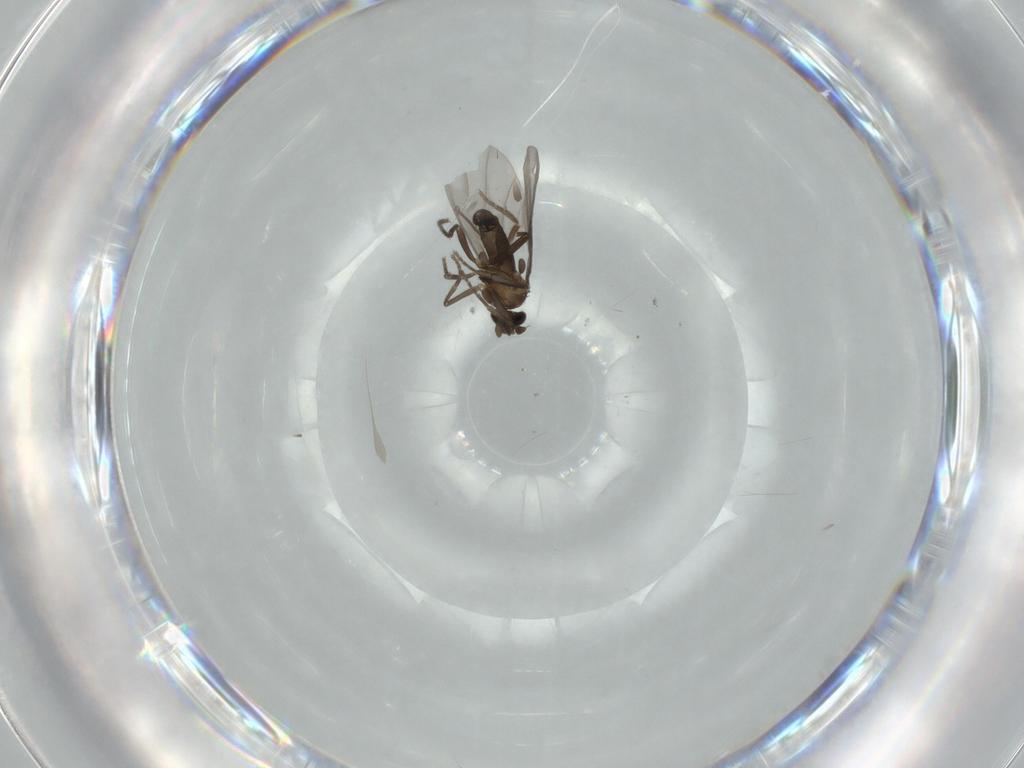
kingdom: Animalia
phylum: Arthropoda
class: Insecta
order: Diptera
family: Phoridae
